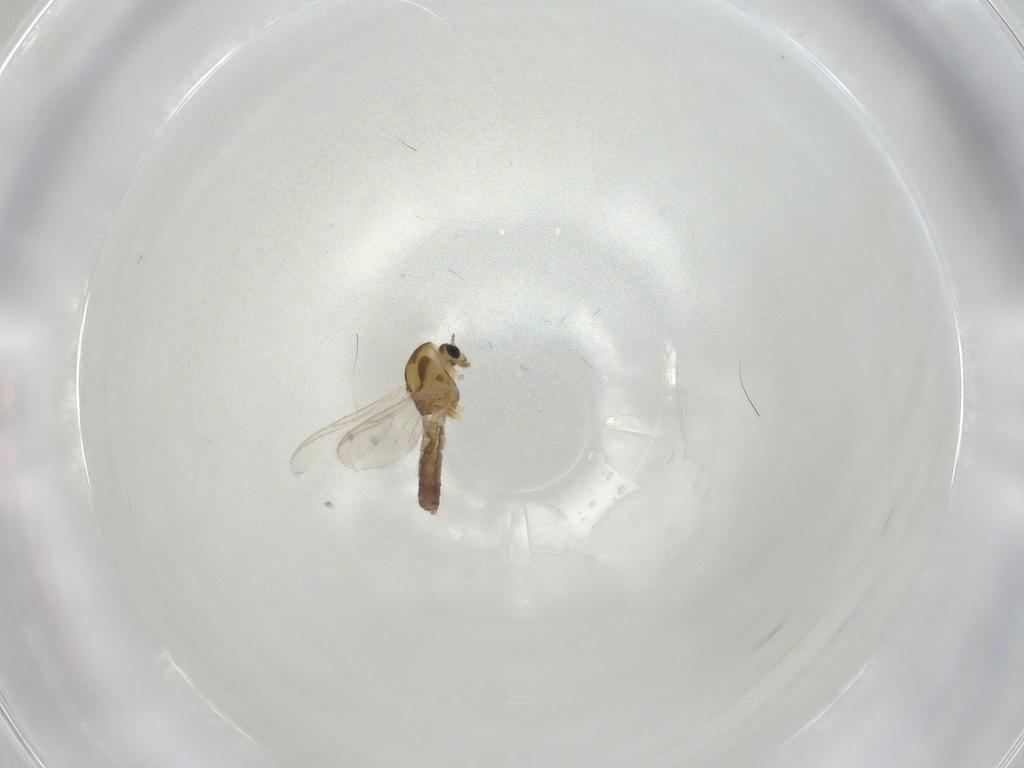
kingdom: Animalia
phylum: Arthropoda
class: Insecta
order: Diptera
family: Chironomidae
